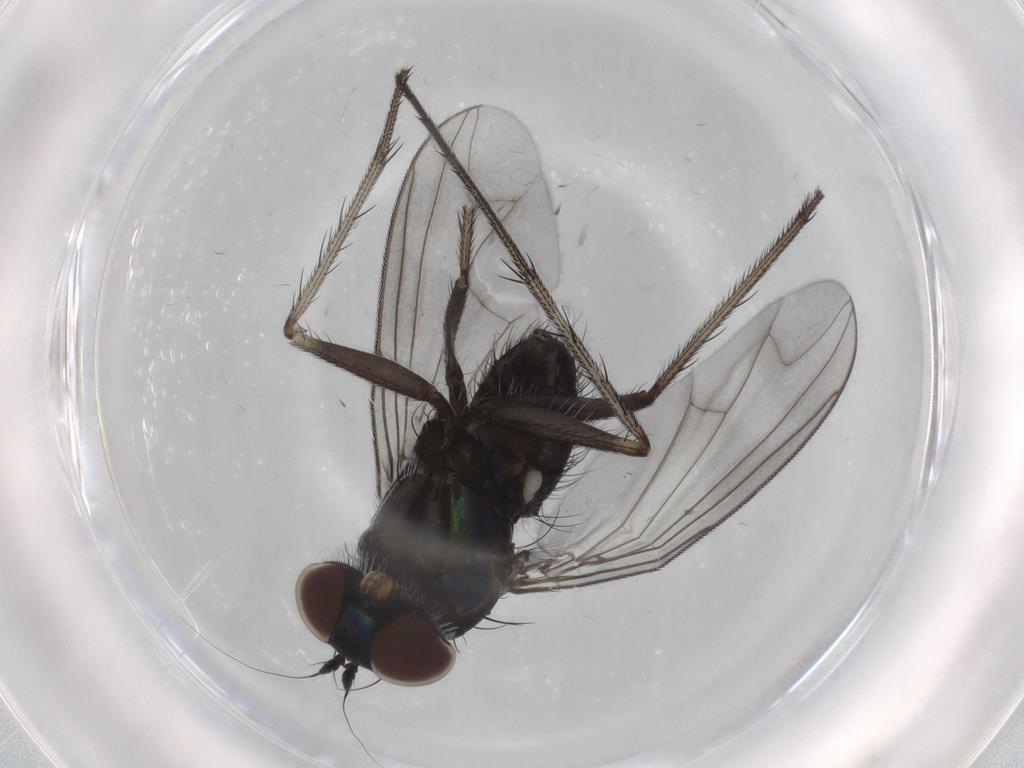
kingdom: Animalia
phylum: Arthropoda
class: Insecta
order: Diptera
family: Dolichopodidae
